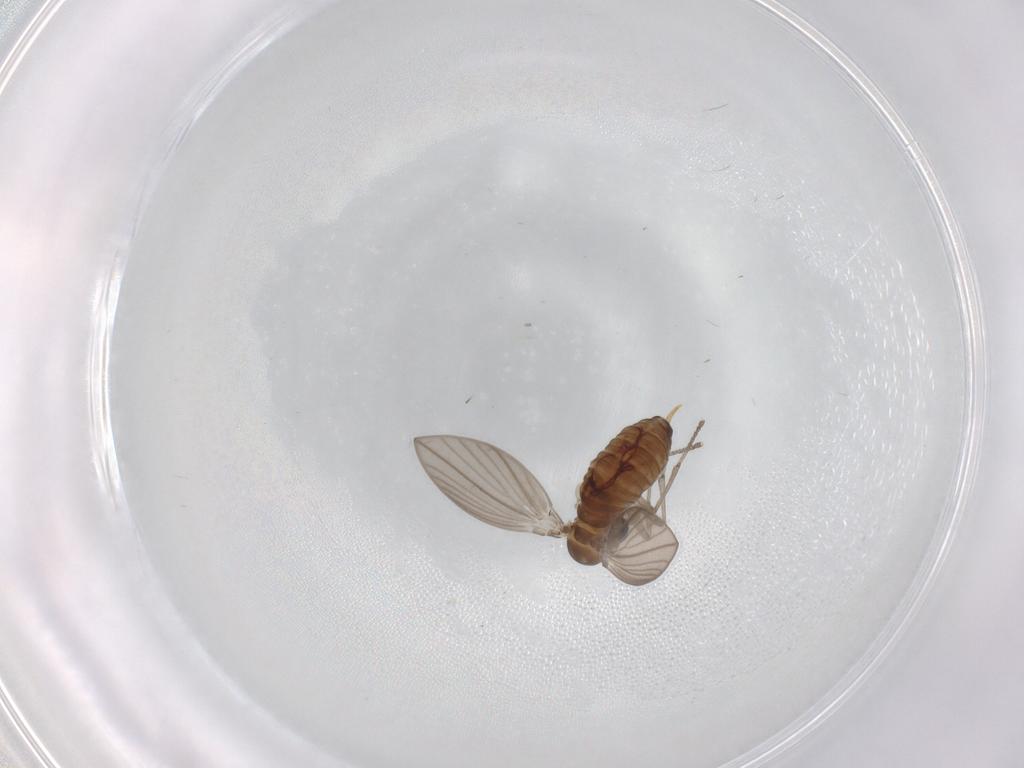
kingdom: Animalia
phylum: Arthropoda
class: Insecta
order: Diptera
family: Psychodidae
